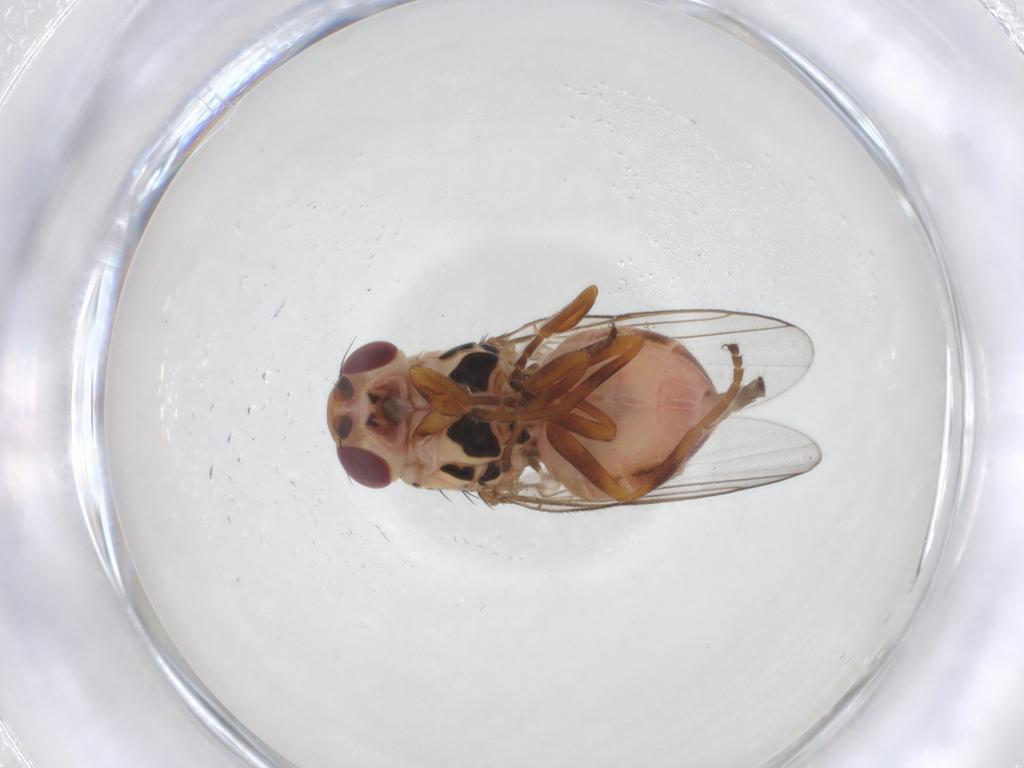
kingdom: Animalia
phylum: Arthropoda
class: Insecta
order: Diptera
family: Chloropidae
